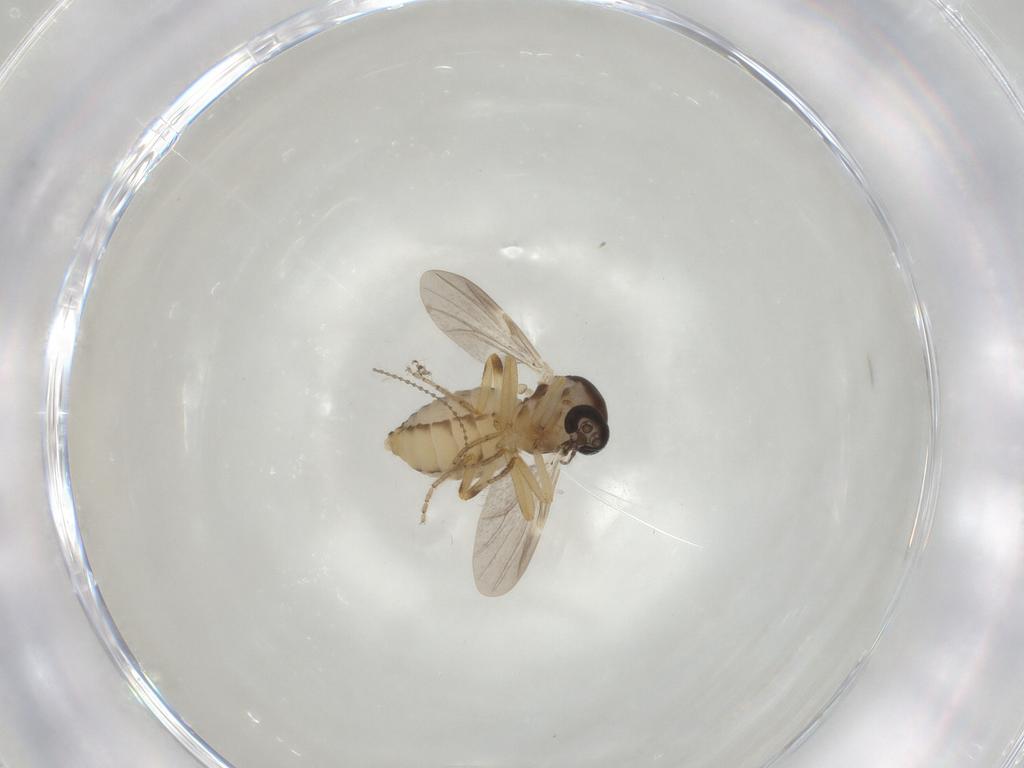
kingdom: Animalia
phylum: Arthropoda
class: Insecta
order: Diptera
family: Ceratopogonidae
